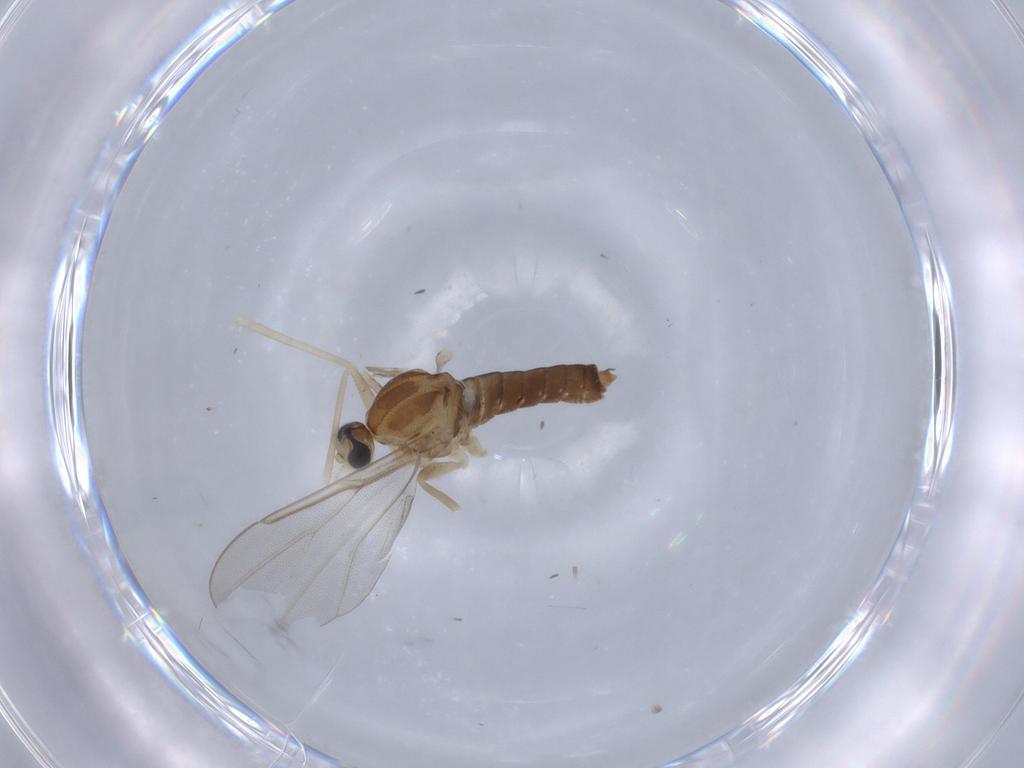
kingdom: Animalia
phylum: Arthropoda
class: Insecta
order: Diptera
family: Cecidomyiidae
